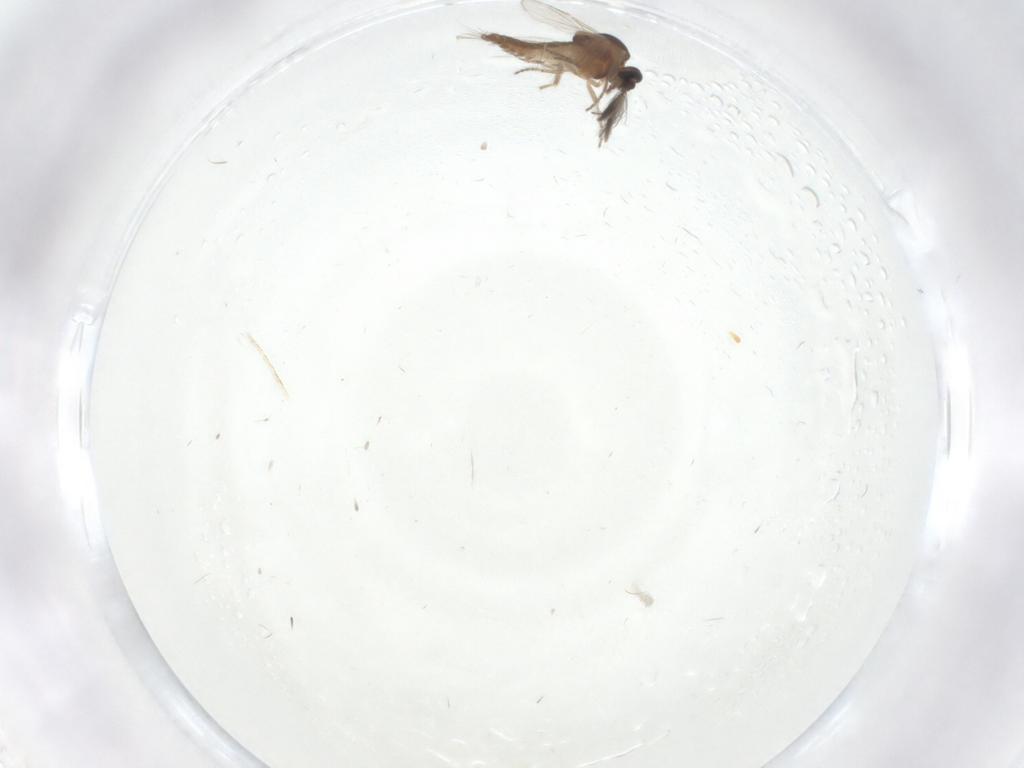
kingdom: Animalia
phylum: Arthropoda
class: Insecta
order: Diptera
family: Ceratopogonidae
